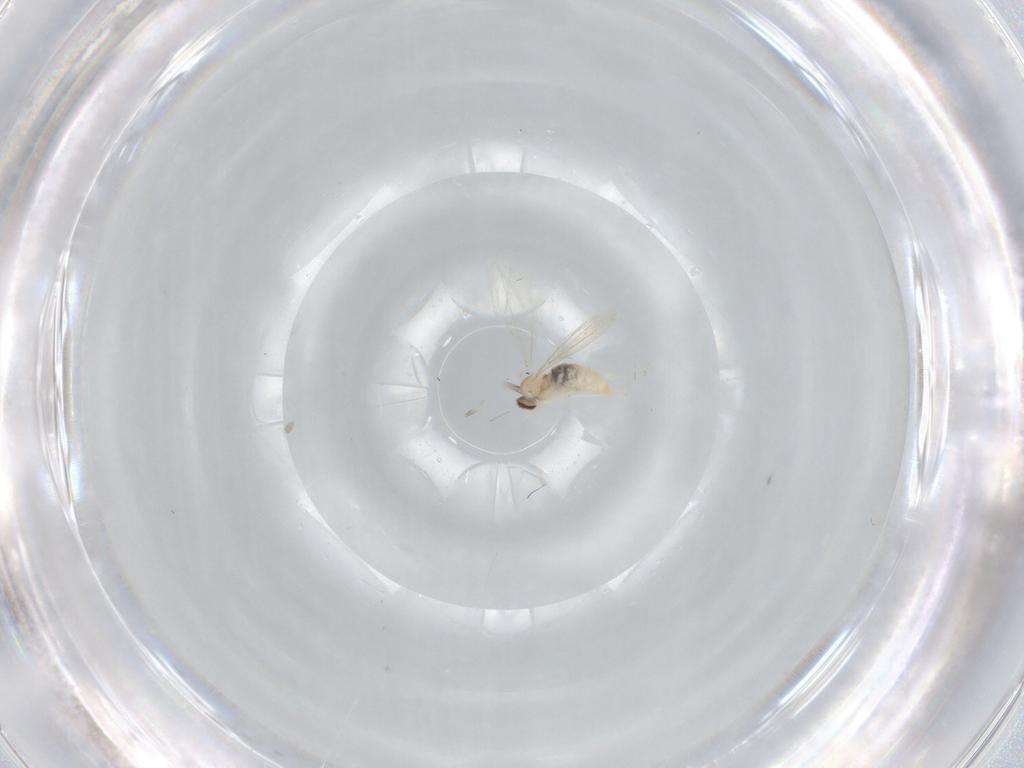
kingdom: Animalia
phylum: Arthropoda
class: Insecta
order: Diptera
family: Cecidomyiidae
